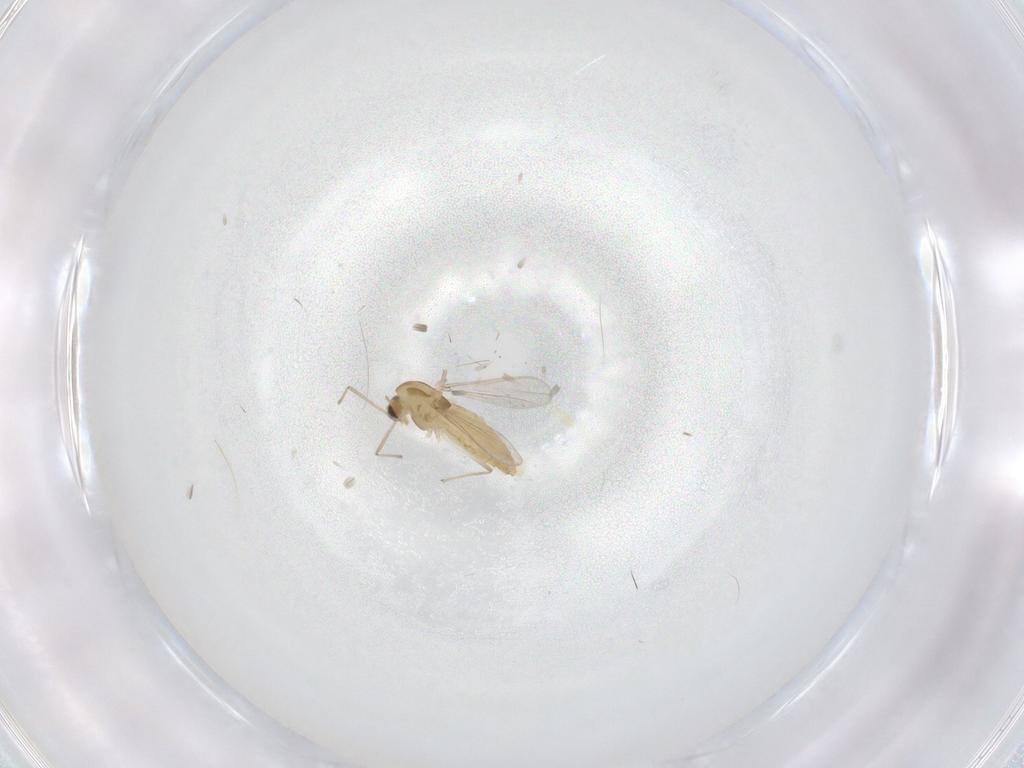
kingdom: Animalia
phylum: Arthropoda
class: Insecta
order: Diptera
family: Chironomidae
